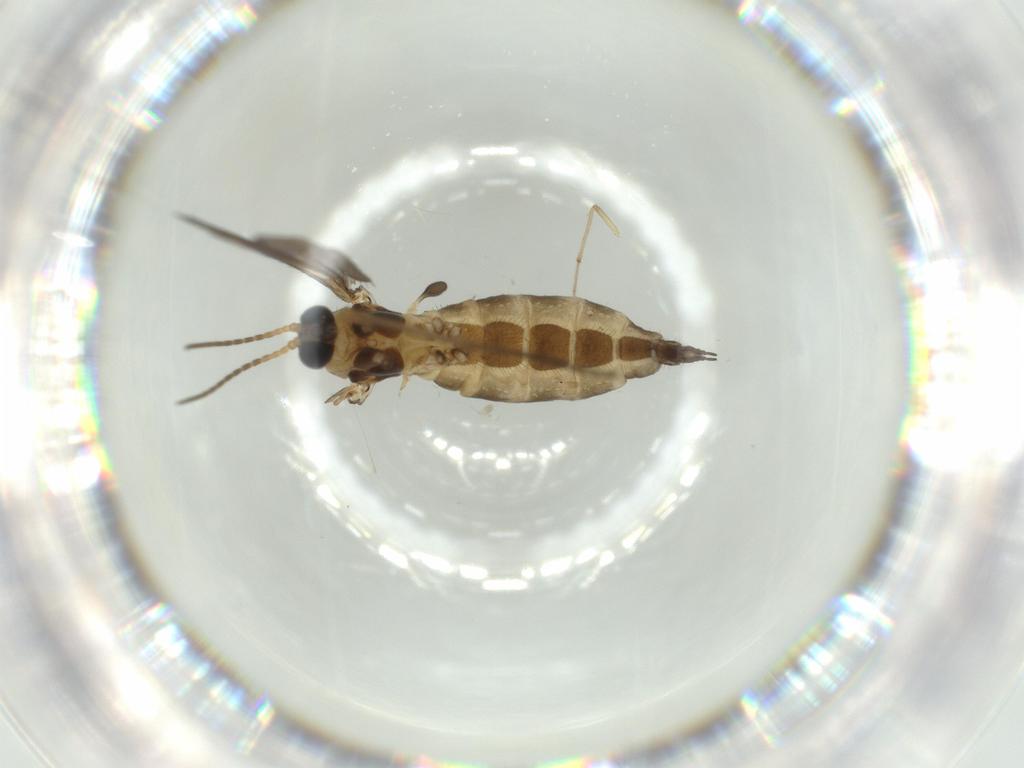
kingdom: Animalia
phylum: Arthropoda
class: Insecta
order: Diptera
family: Sciaridae
